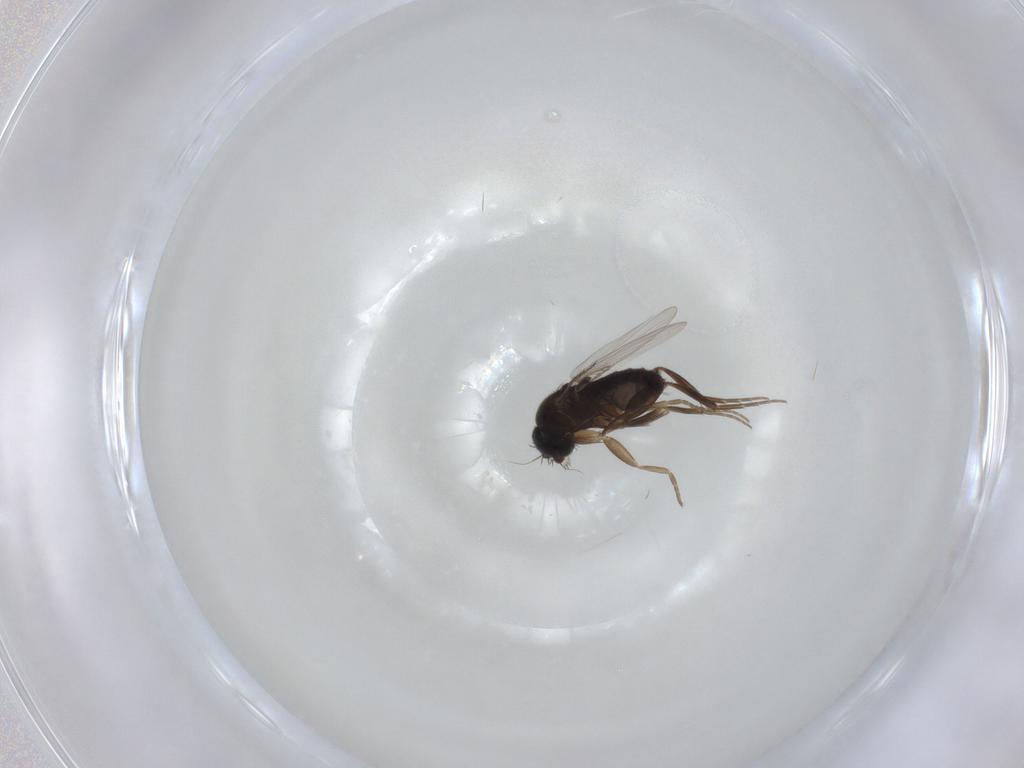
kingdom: Animalia
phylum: Arthropoda
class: Insecta
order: Diptera
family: Phoridae
